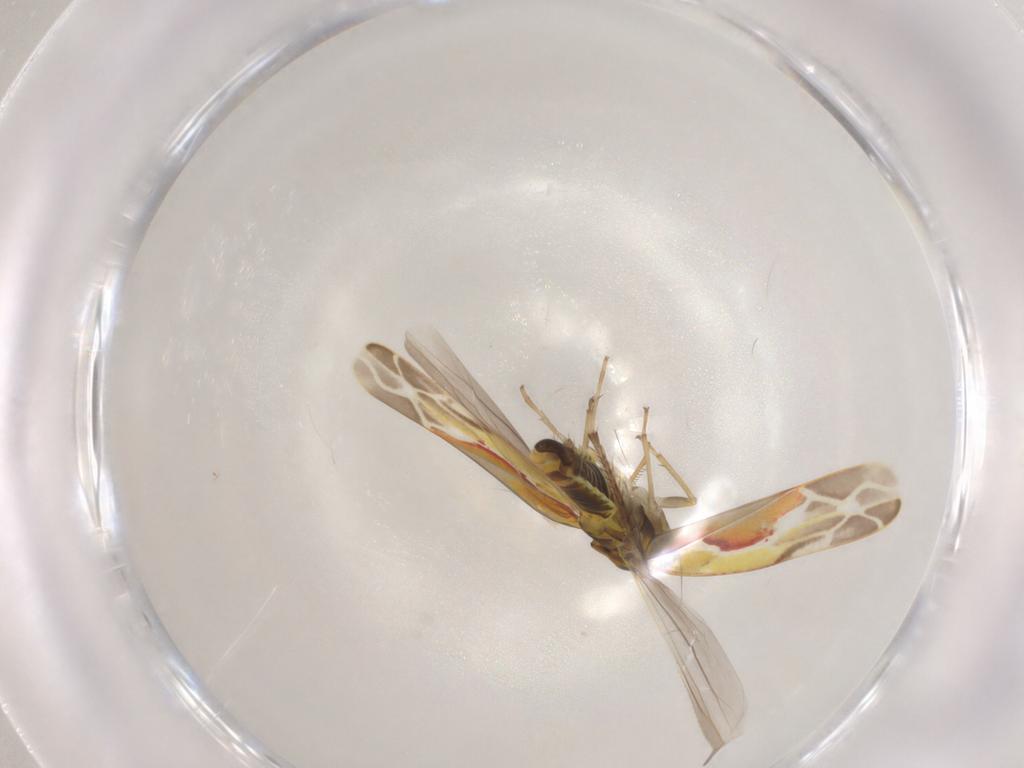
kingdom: Animalia
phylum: Arthropoda
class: Insecta
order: Hemiptera
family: Cicadellidae
